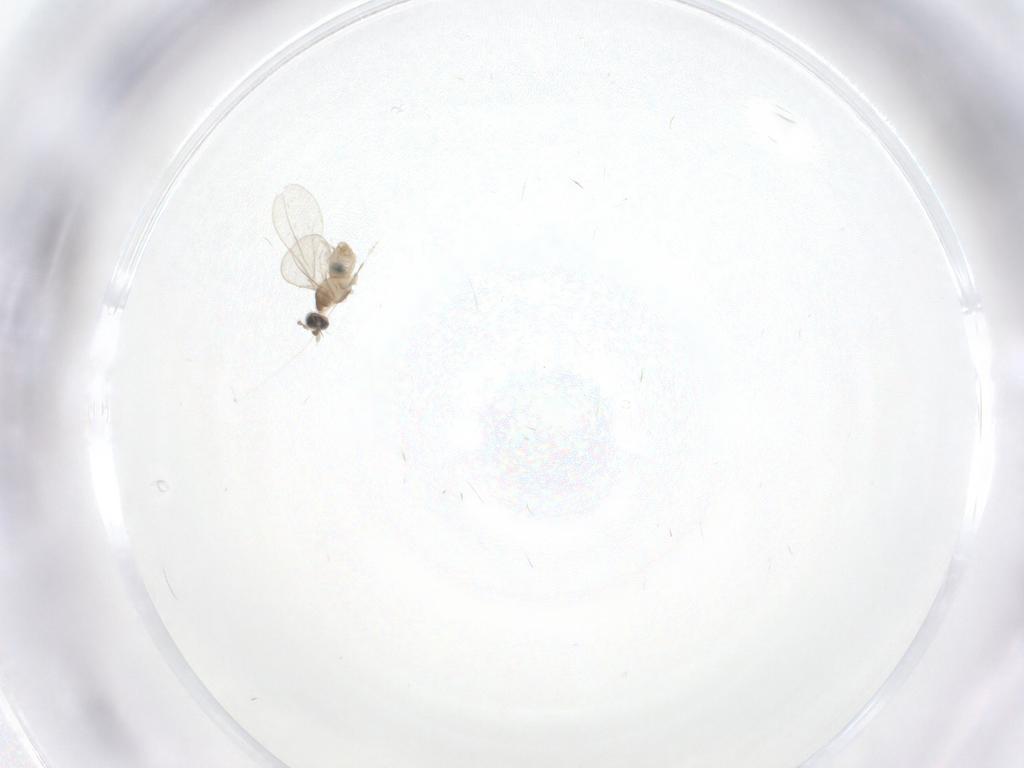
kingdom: Animalia
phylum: Arthropoda
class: Insecta
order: Diptera
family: Cecidomyiidae
